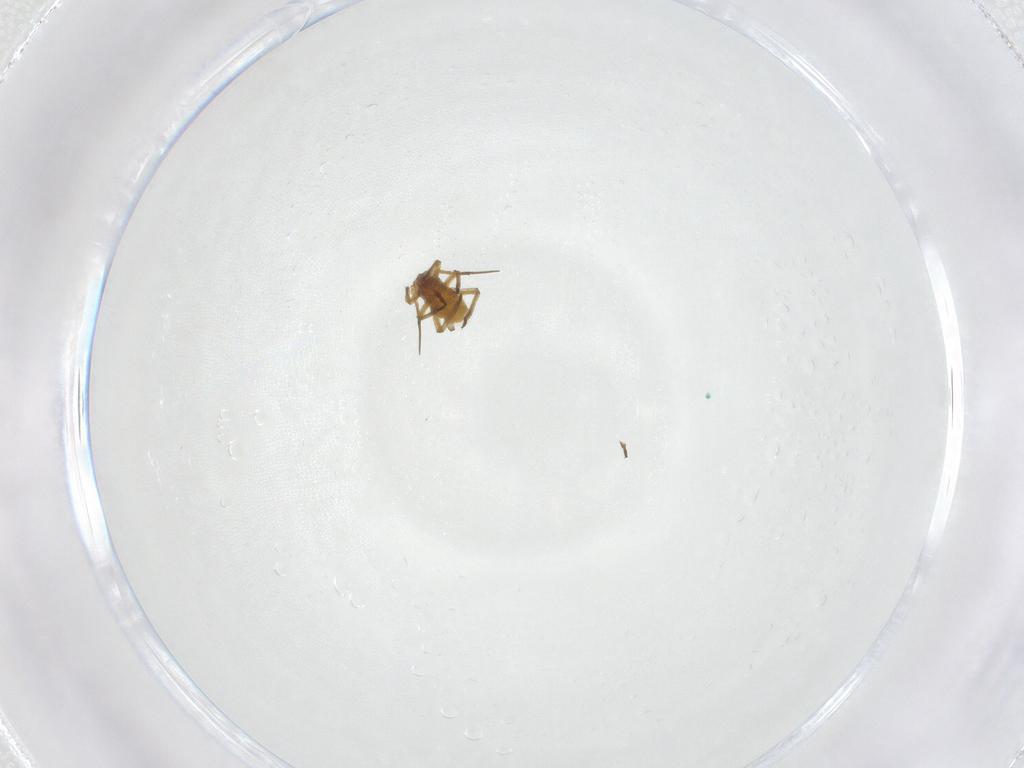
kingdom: Animalia
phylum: Arthropoda
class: Insecta
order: Hemiptera
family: Aphididae
